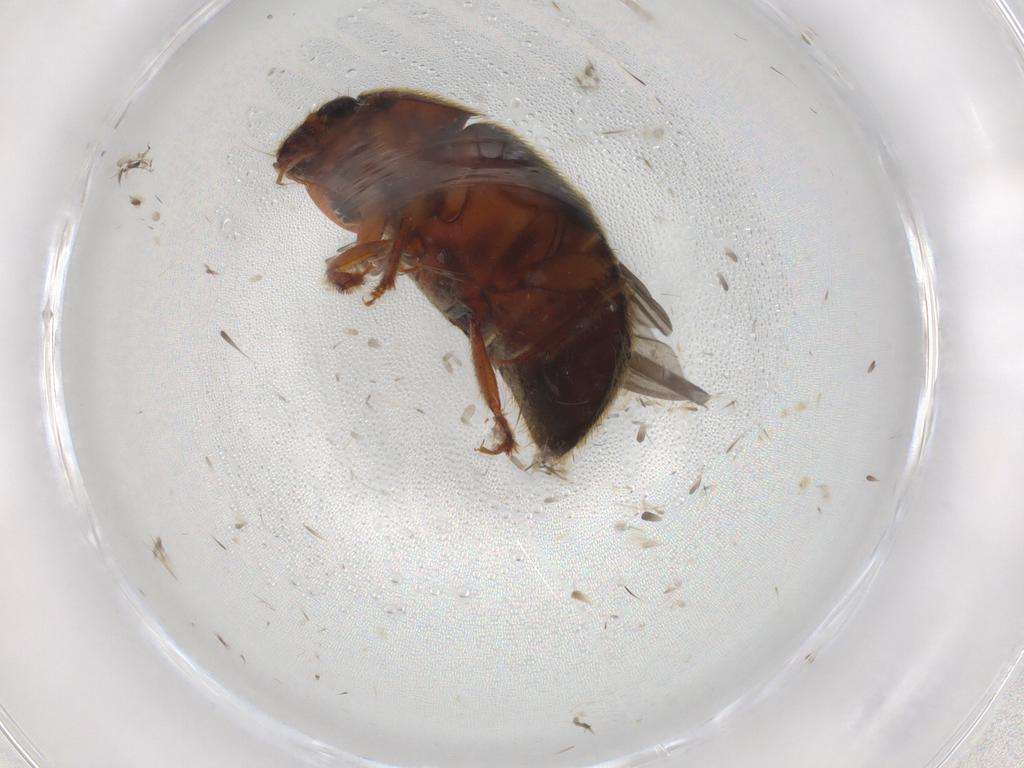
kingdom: Animalia
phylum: Arthropoda
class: Insecta
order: Coleoptera
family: Nitidulidae
